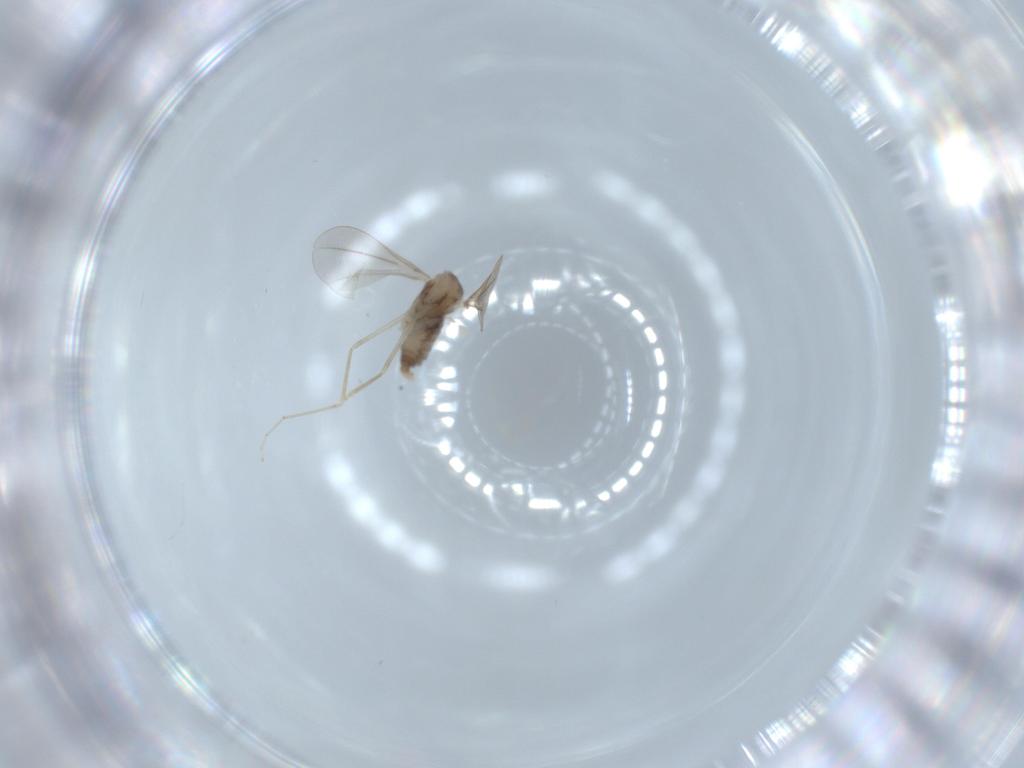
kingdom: Animalia
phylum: Arthropoda
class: Insecta
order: Diptera
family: Cecidomyiidae
